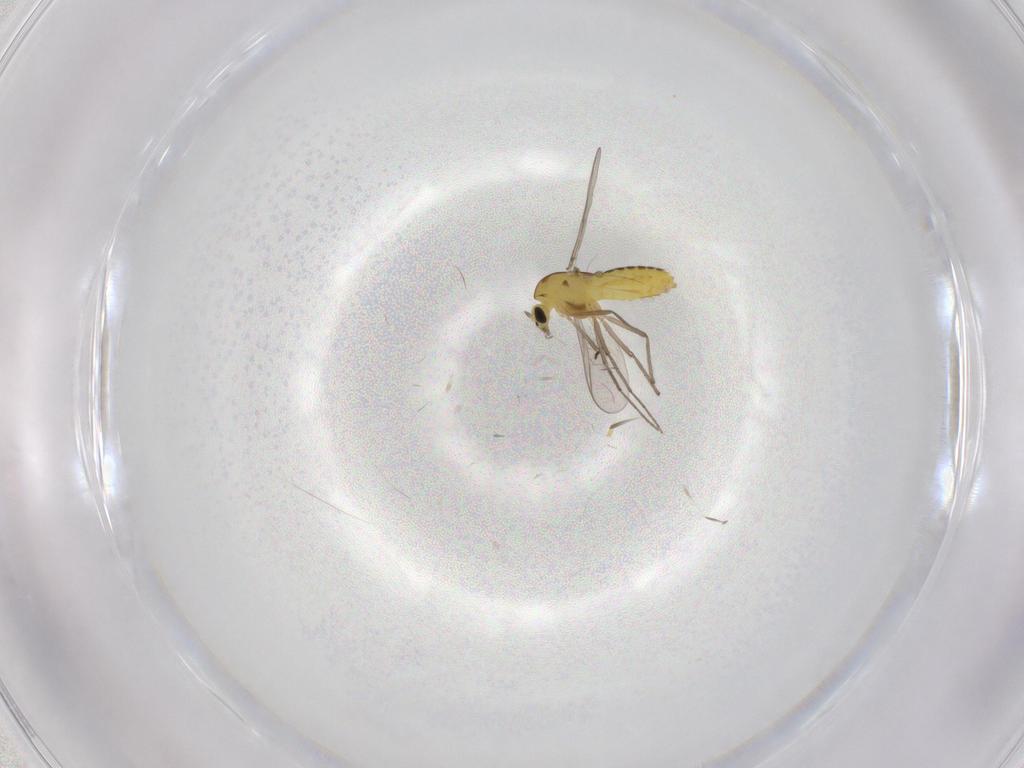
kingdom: Animalia
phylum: Arthropoda
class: Insecta
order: Diptera
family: Chironomidae
